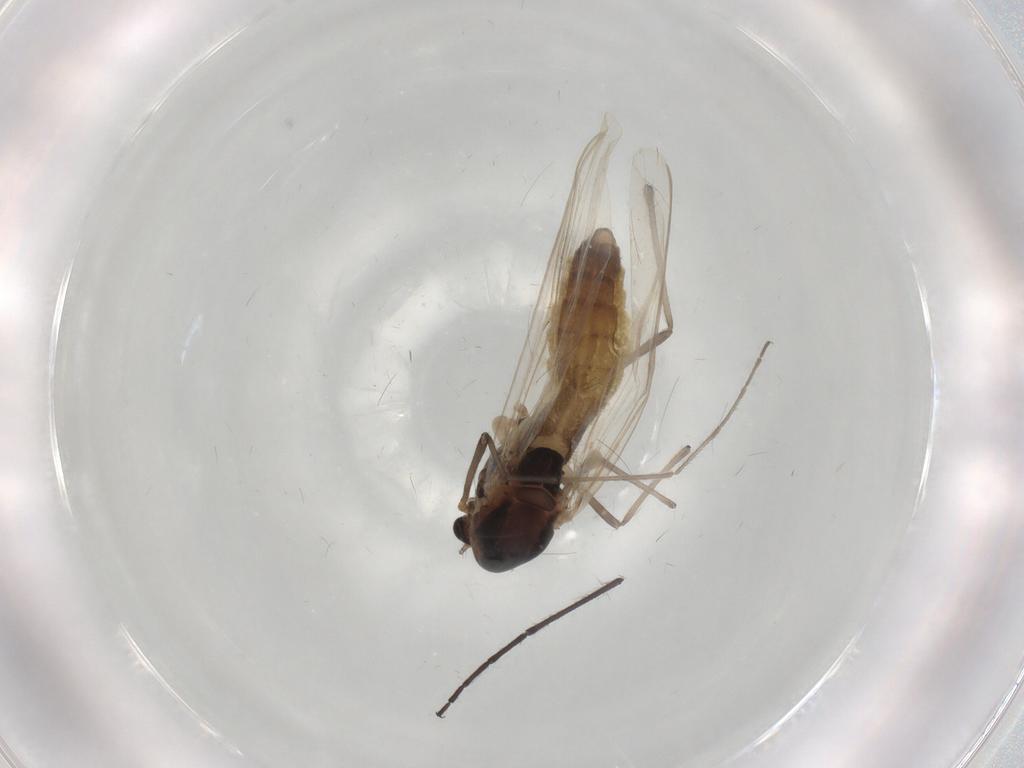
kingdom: Animalia
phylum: Arthropoda
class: Insecta
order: Diptera
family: Chironomidae
